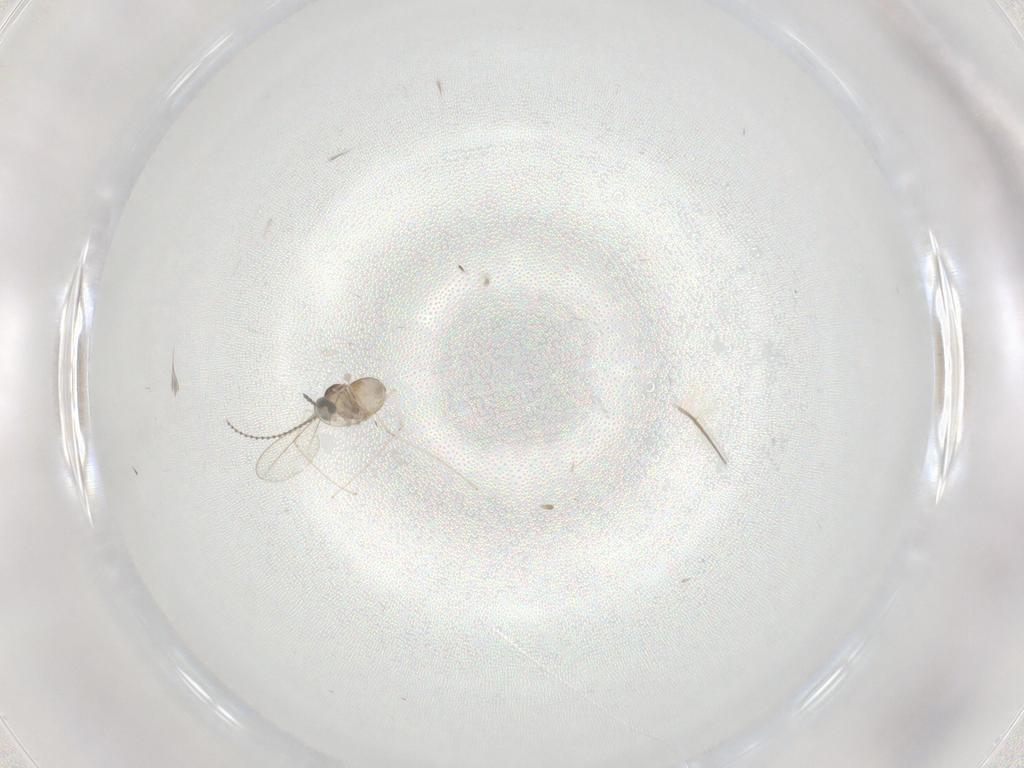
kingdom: Animalia
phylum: Arthropoda
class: Insecta
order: Diptera
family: Cecidomyiidae
